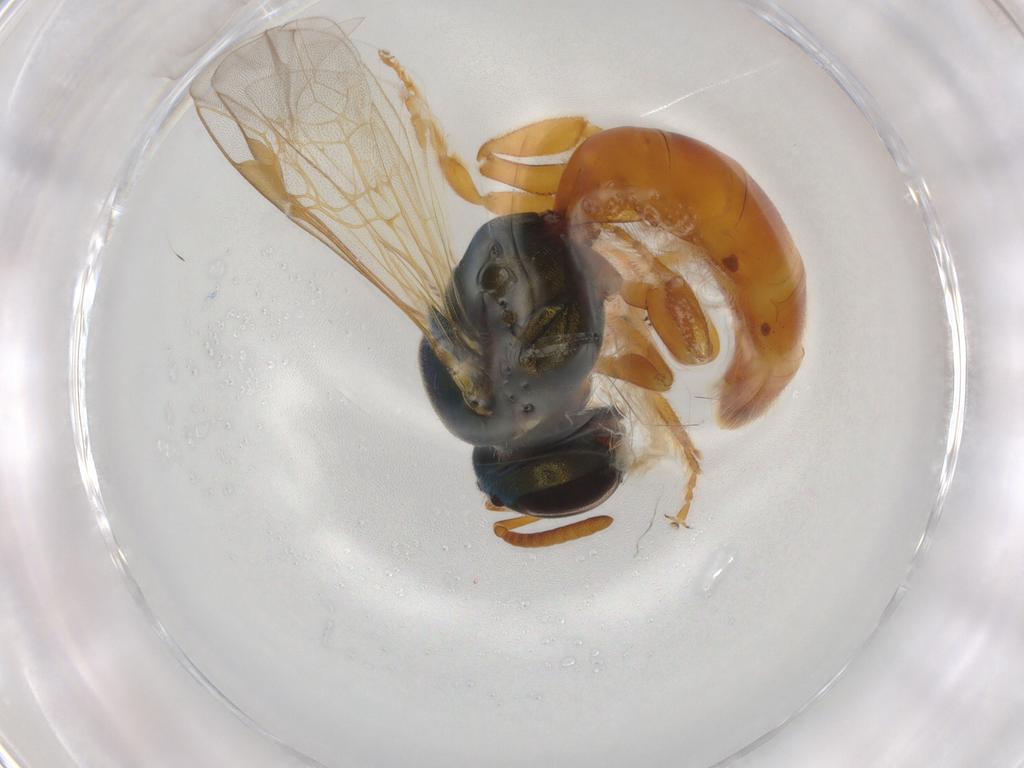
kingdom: Animalia
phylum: Arthropoda
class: Insecta
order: Hymenoptera
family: Halictidae
